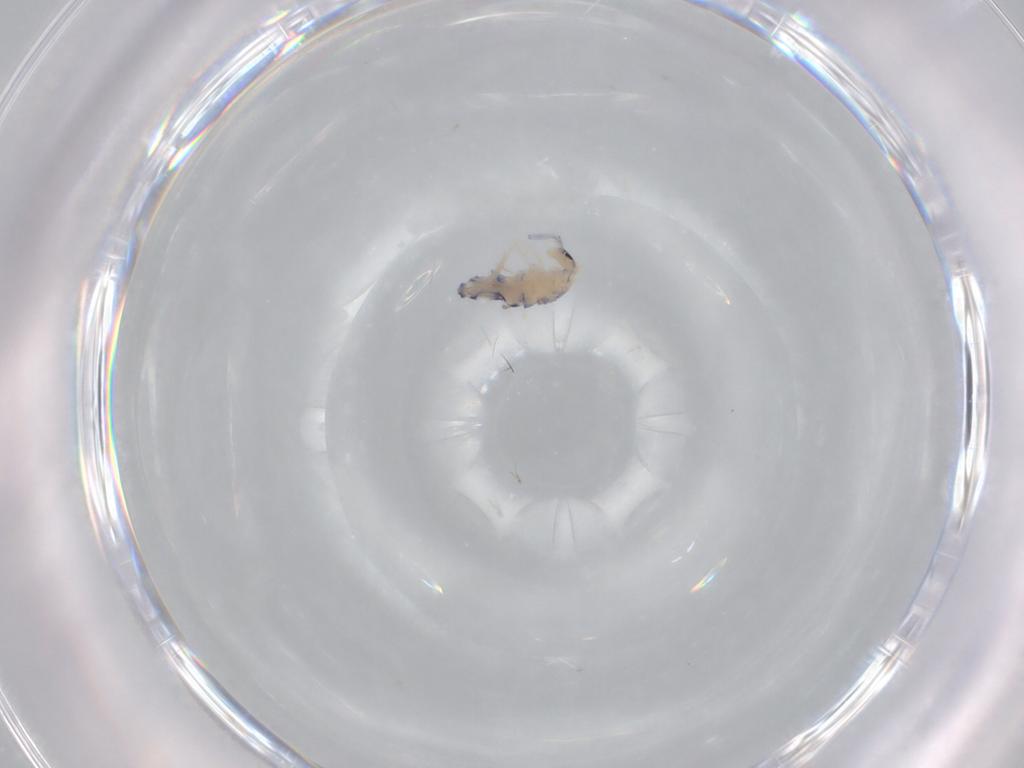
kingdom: Animalia
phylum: Arthropoda
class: Collembola
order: Entomobryomorpha
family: Entomobryidae
